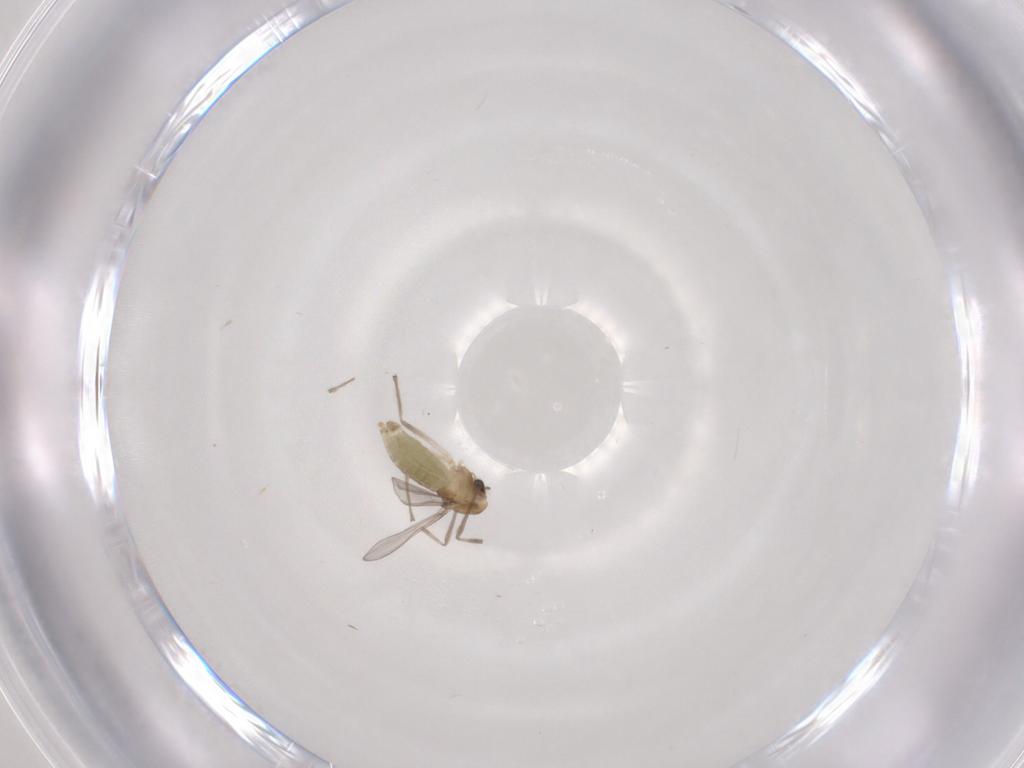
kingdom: Animalia
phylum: Arthropoda
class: Insecta
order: Diptera
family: Chironomidae
